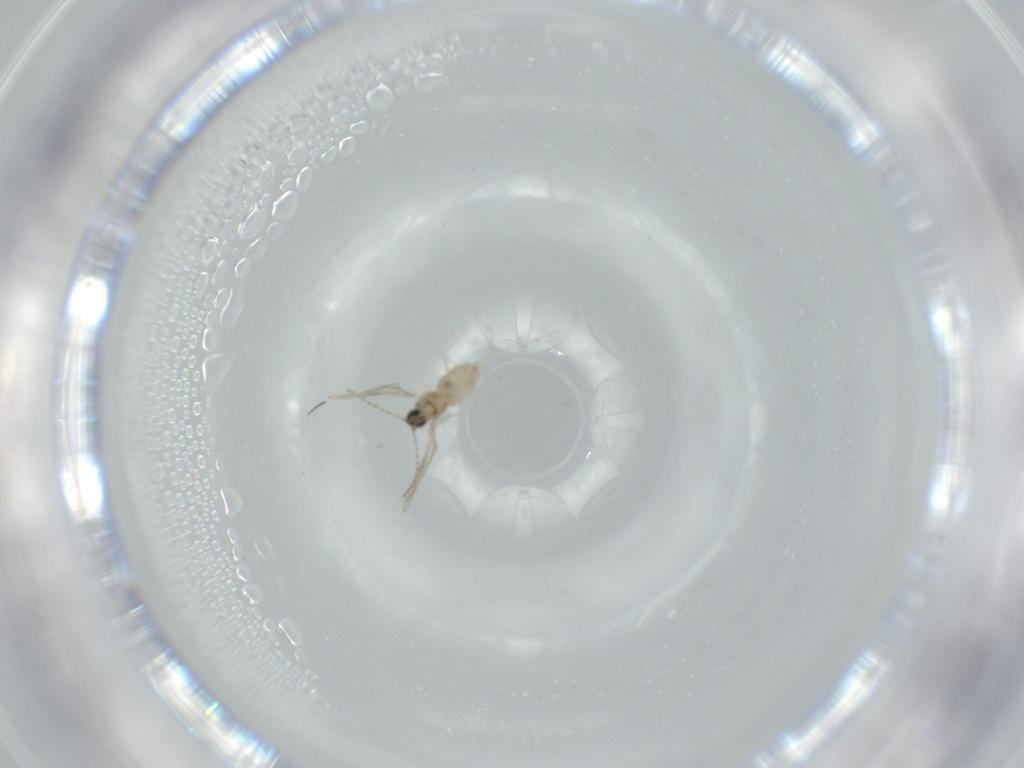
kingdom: Animalia
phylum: Arthropoda
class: Insecta
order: Diptera
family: Cecidomyiidae
